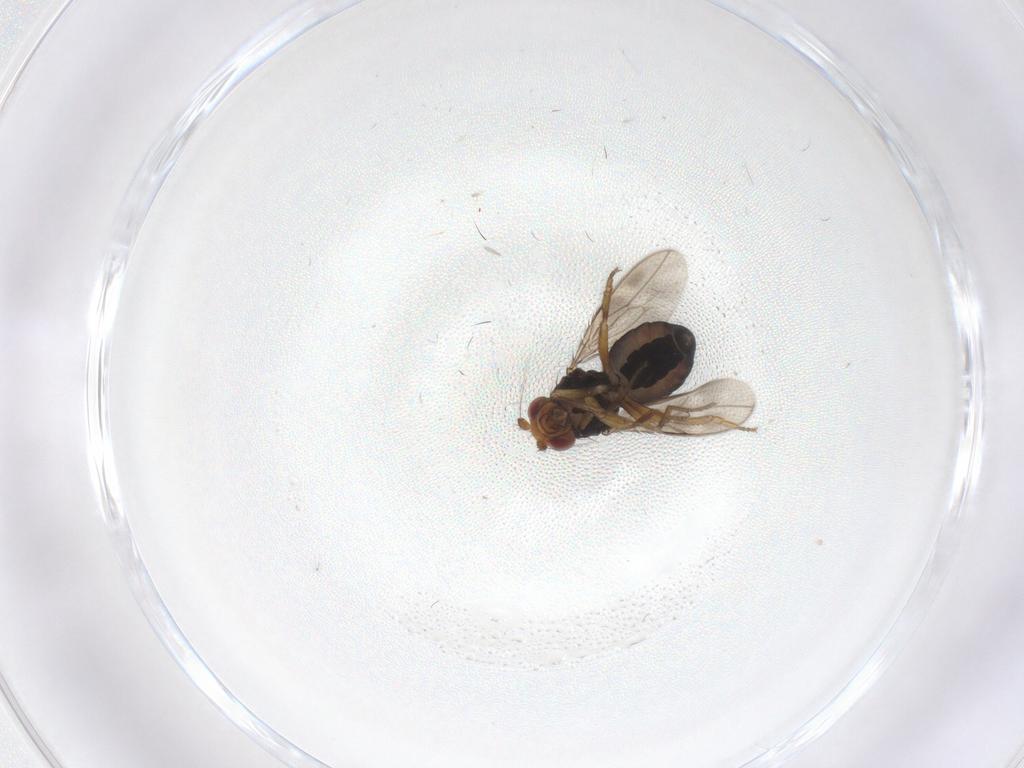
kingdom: Animalia
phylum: Arthropoda
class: Insecta
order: Diptera
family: Sphaeroceridae
